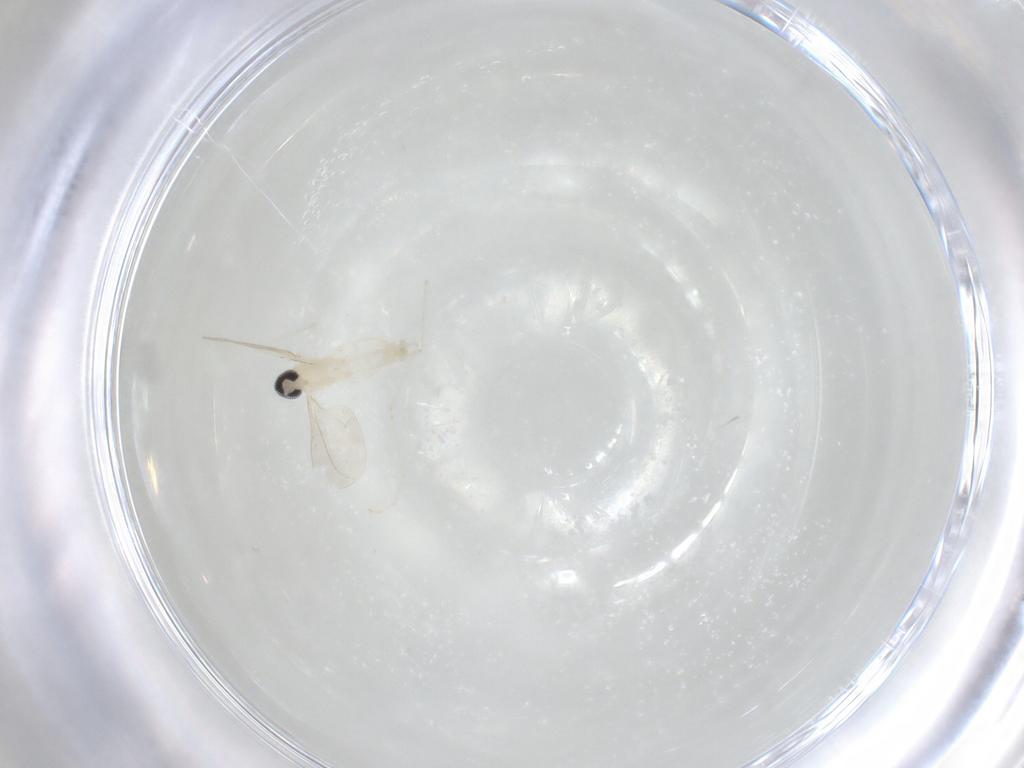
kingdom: Animalia
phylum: Arthropoda
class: Insecta
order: Diptera
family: Cecidomyiidae
